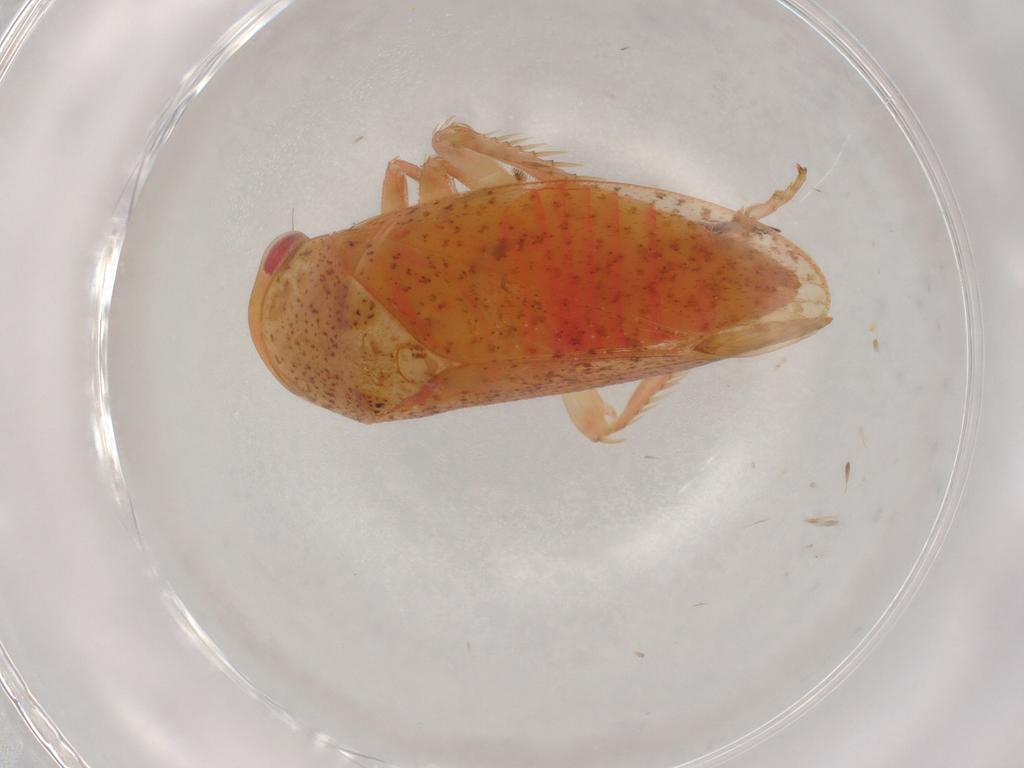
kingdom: Animalia
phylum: Arthropoda
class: Insecta
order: Hemiptera
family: Cicadellidae
